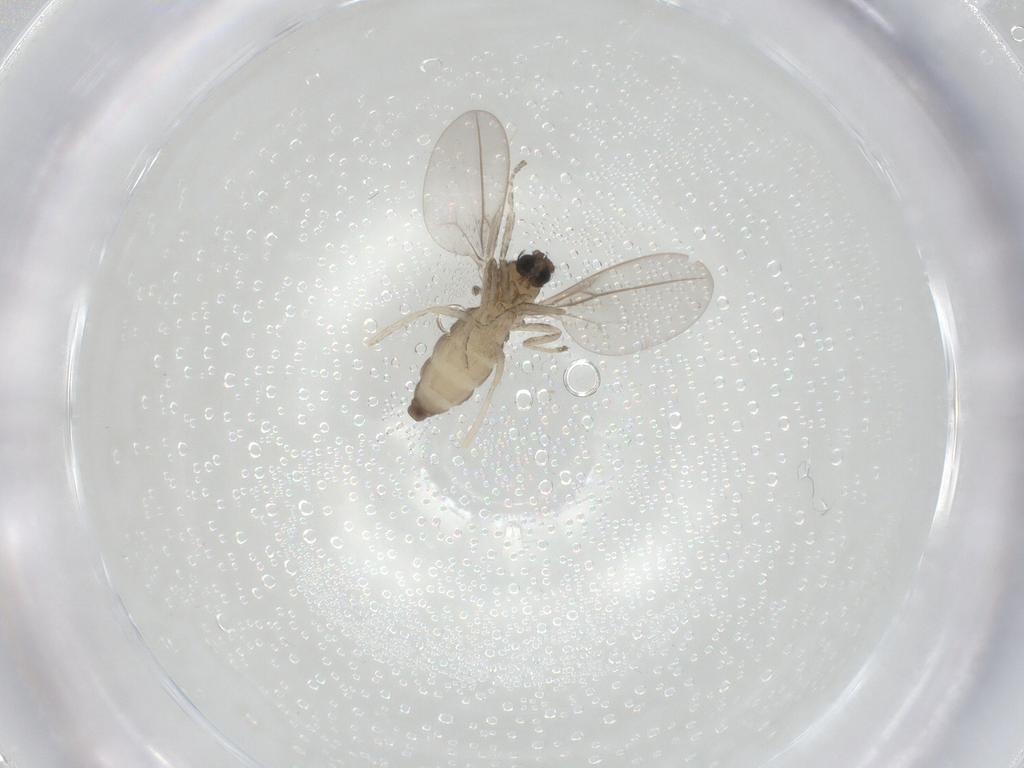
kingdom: Animalia
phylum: Arthropoda
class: Insecta
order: Diptera
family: Cecidomyiidae
